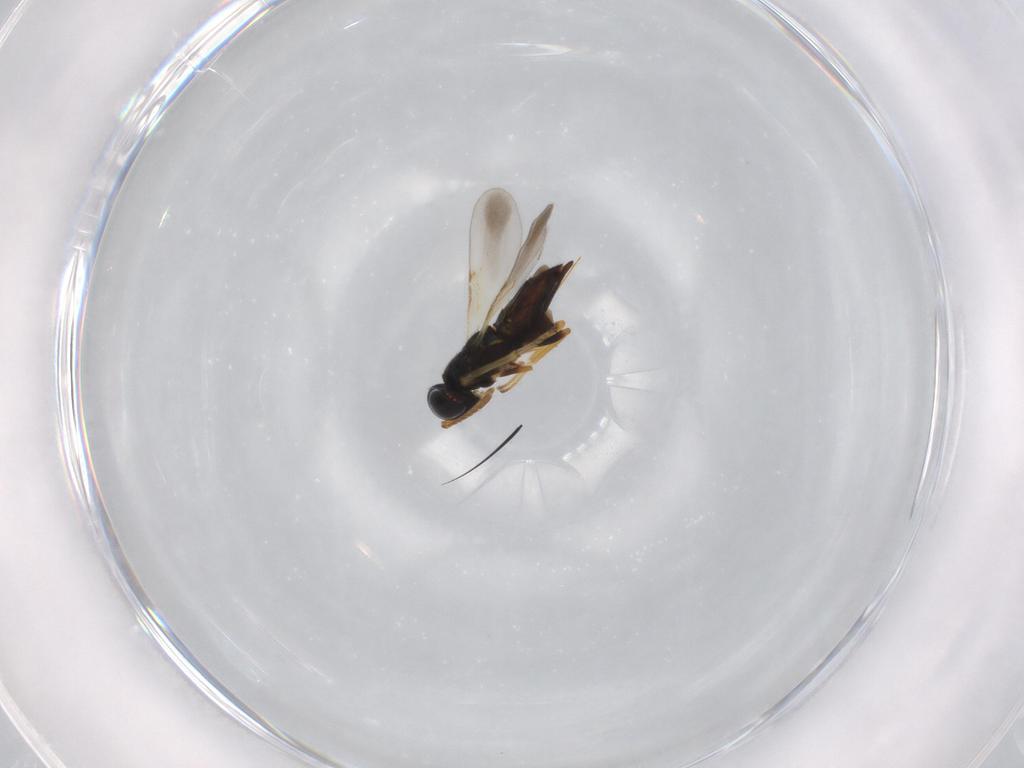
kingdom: Animalia
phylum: Arthropoda
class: Insecta
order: Hymenoptera
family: Encyrtidae
